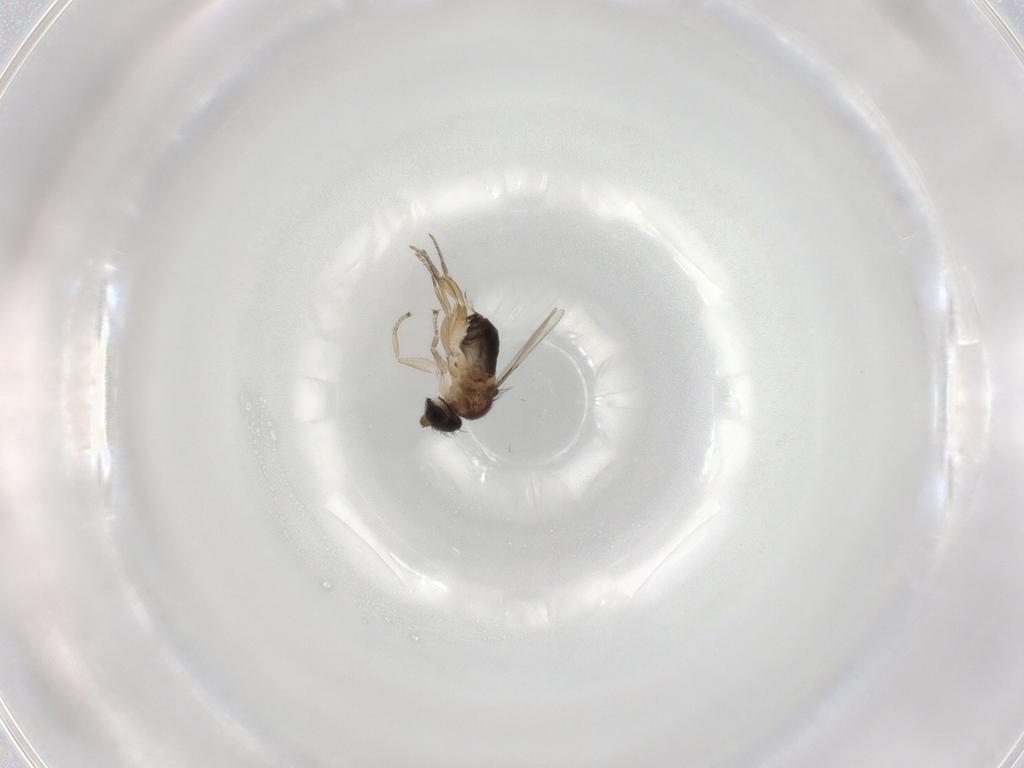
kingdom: Animalia
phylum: Arthropoda
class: Insecta
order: Diptera
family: Phoridae
